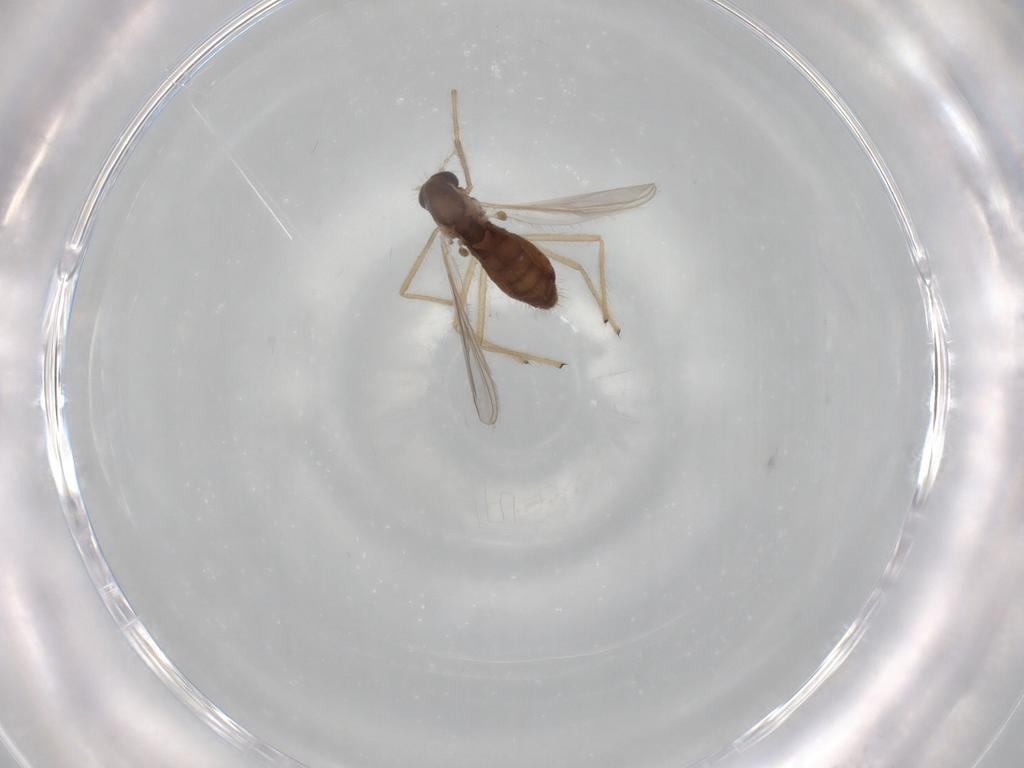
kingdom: Animalia
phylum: Arthropoda
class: Insecta
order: Diptera
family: Chironomidae
